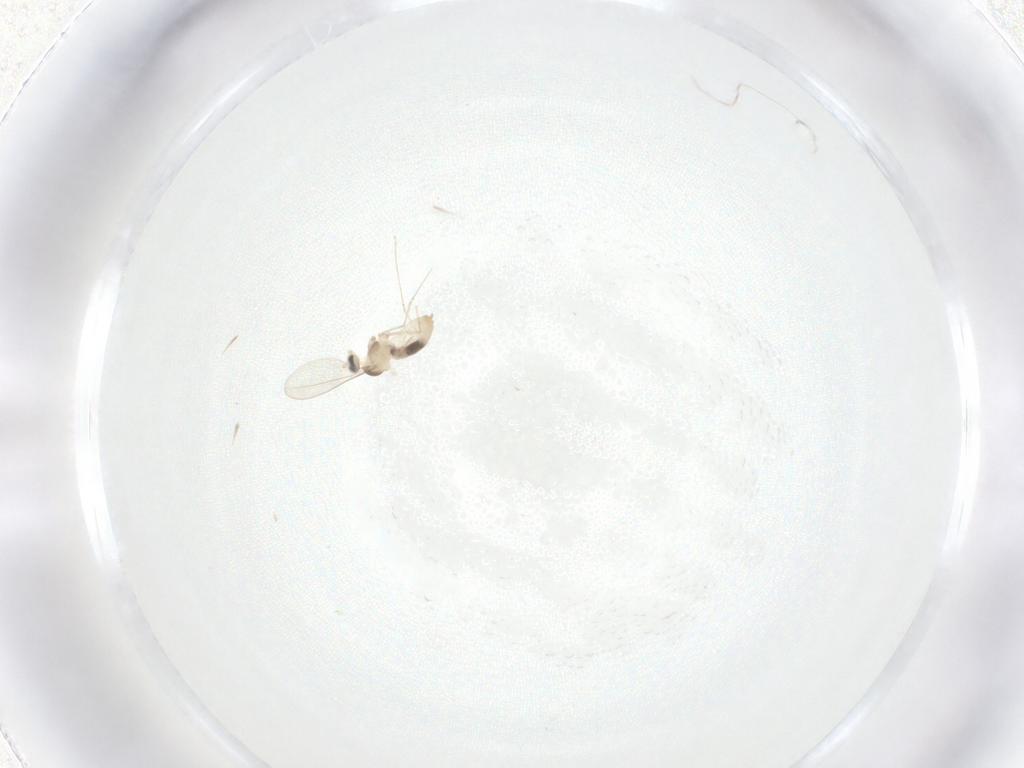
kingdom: Animalia
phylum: Arthropoda
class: Insecta
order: Diptera
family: Cecidomyiidae
